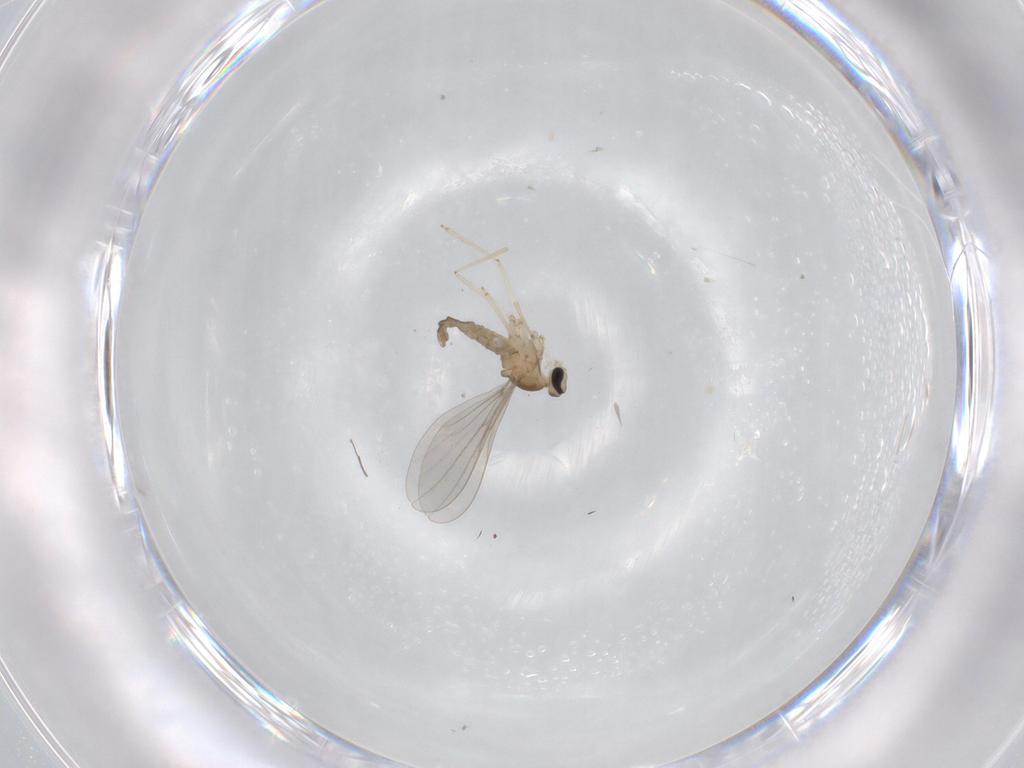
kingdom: Animalia
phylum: Arthropoda
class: Insecta
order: Diptera
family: Cecidomyiidae
